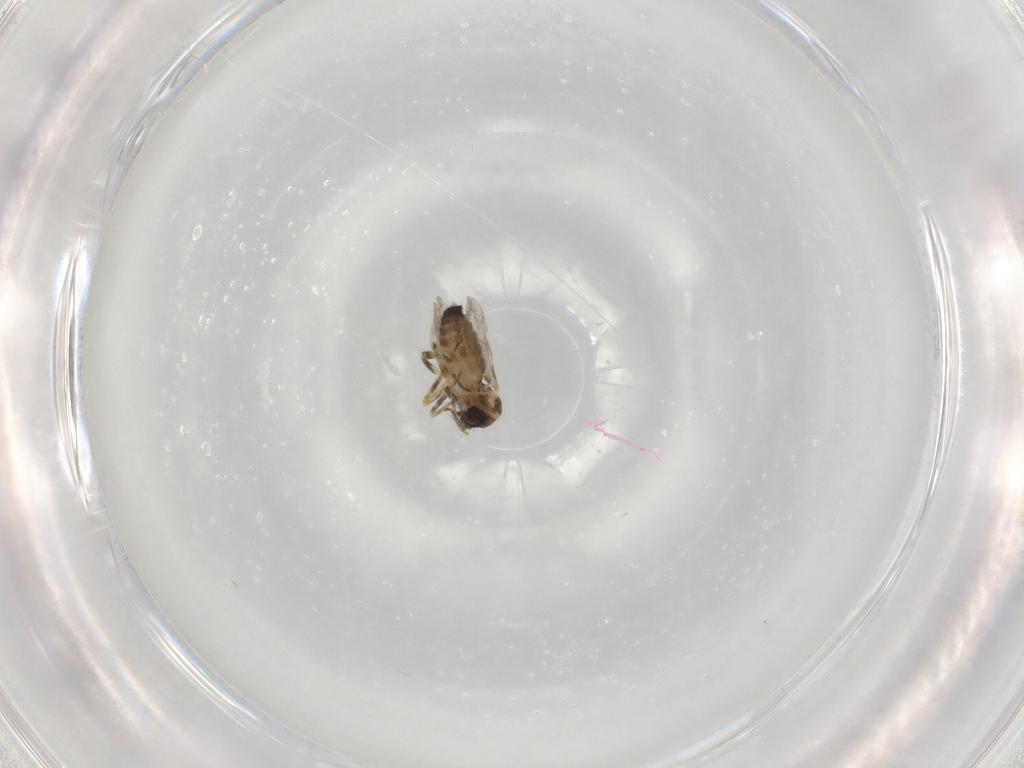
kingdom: Animalia
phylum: Arthropoda
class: Insecta
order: Diptera
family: Ceratopogonidae
